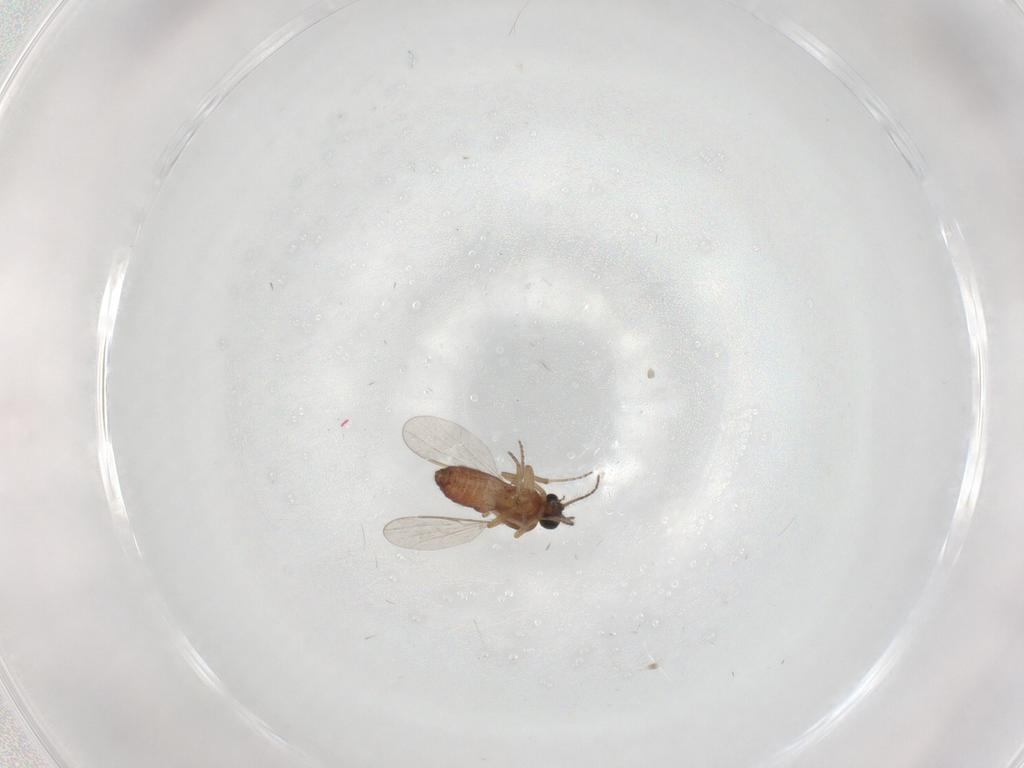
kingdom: Animalia
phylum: Arthropoda
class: Insecta
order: Diptera
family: Ceratopogonidae
